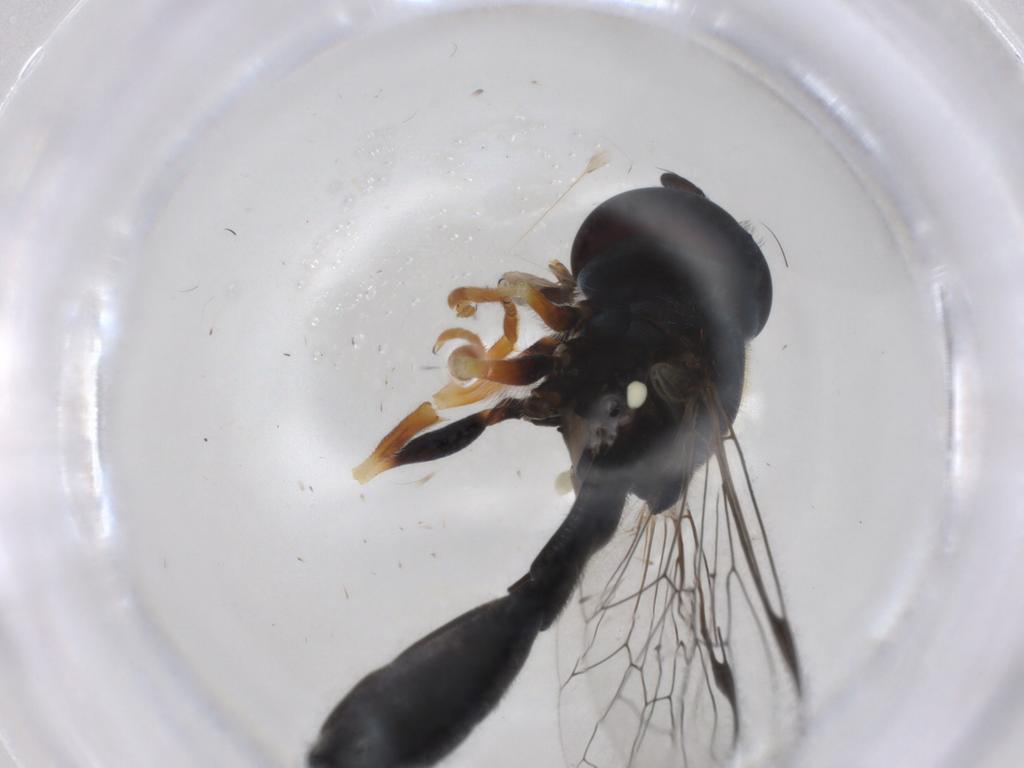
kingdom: Animalia
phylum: Arthropoda
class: Insecta
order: Diptera
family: Syrphidae
